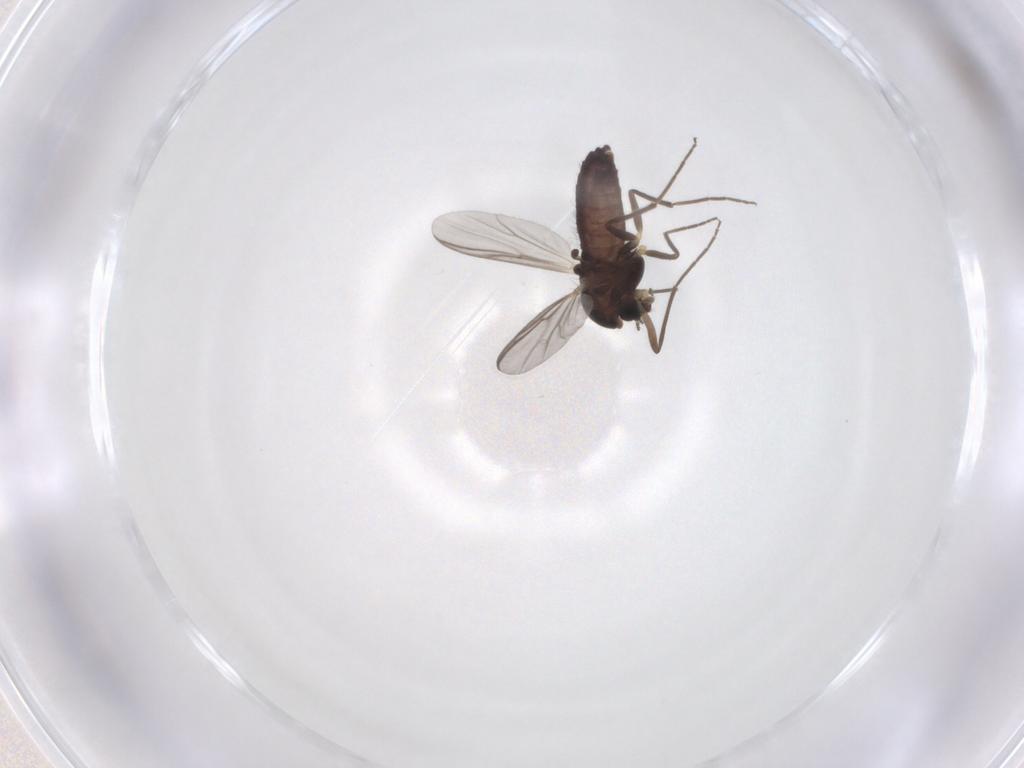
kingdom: Animalia
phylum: Arthropoda
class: Insecta
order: Diptera
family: Chironomidae
